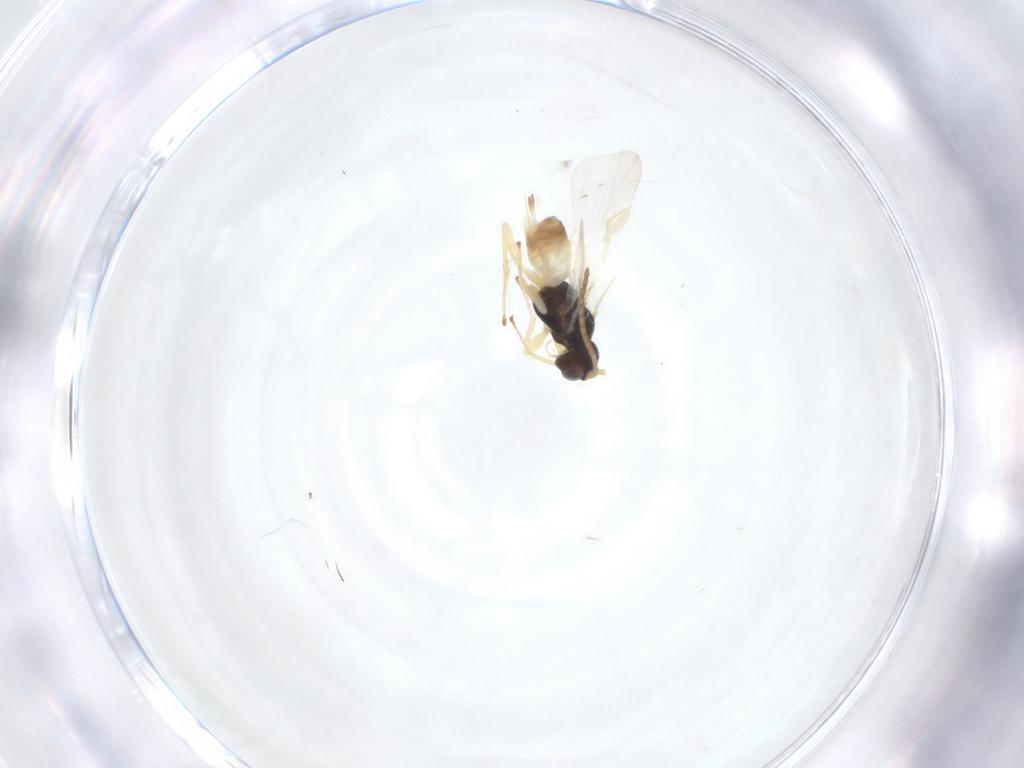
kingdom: Animalia
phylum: Arthropoda
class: Insecta
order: Hymenoptera
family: Braconidae
